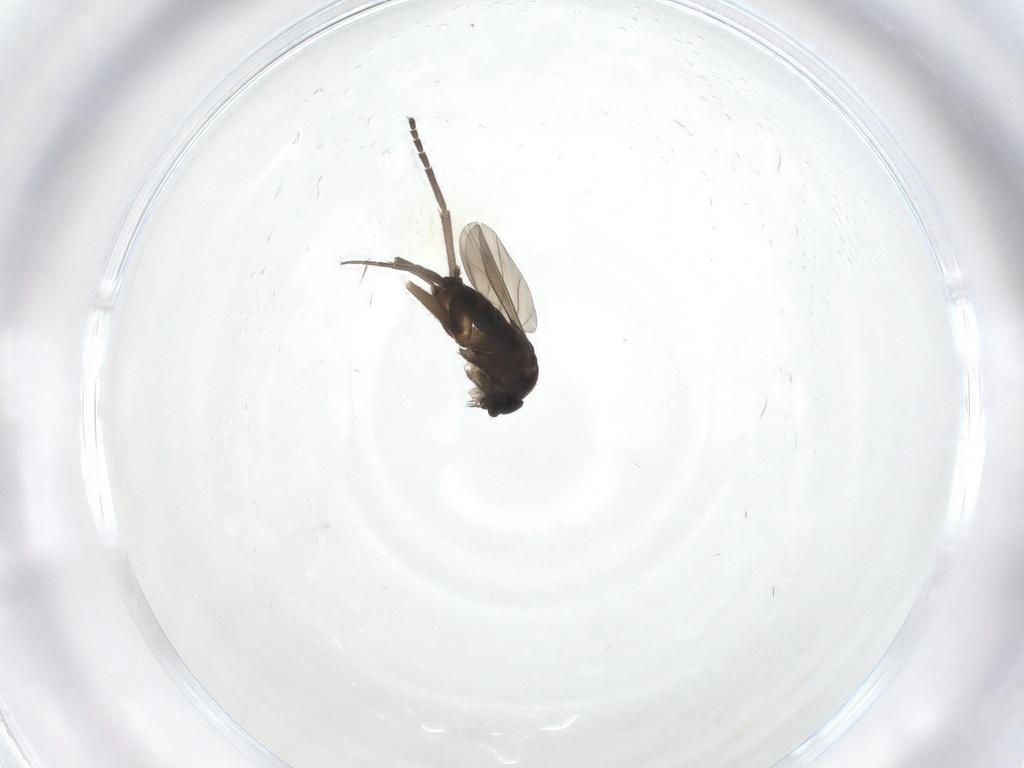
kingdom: Animalia
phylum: Arthropoda
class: Insecta
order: Diptera
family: Phoridae
